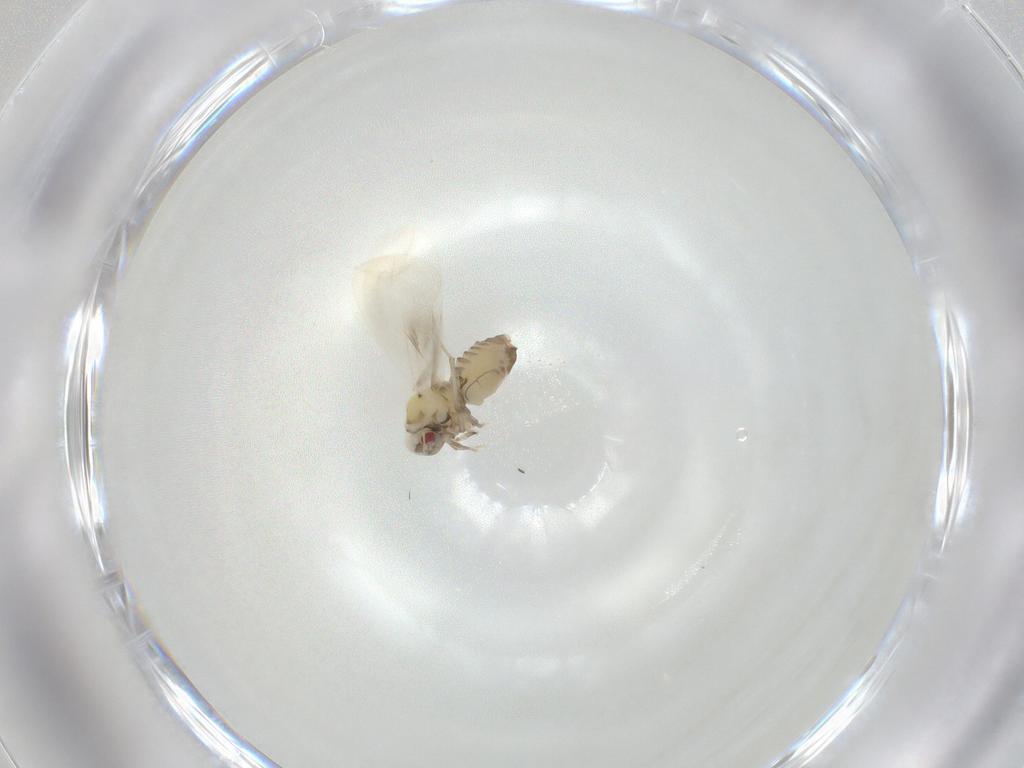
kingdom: Animalia
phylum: Arthropoda
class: Insecta
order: Hemiptera
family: Aleyrodidae
